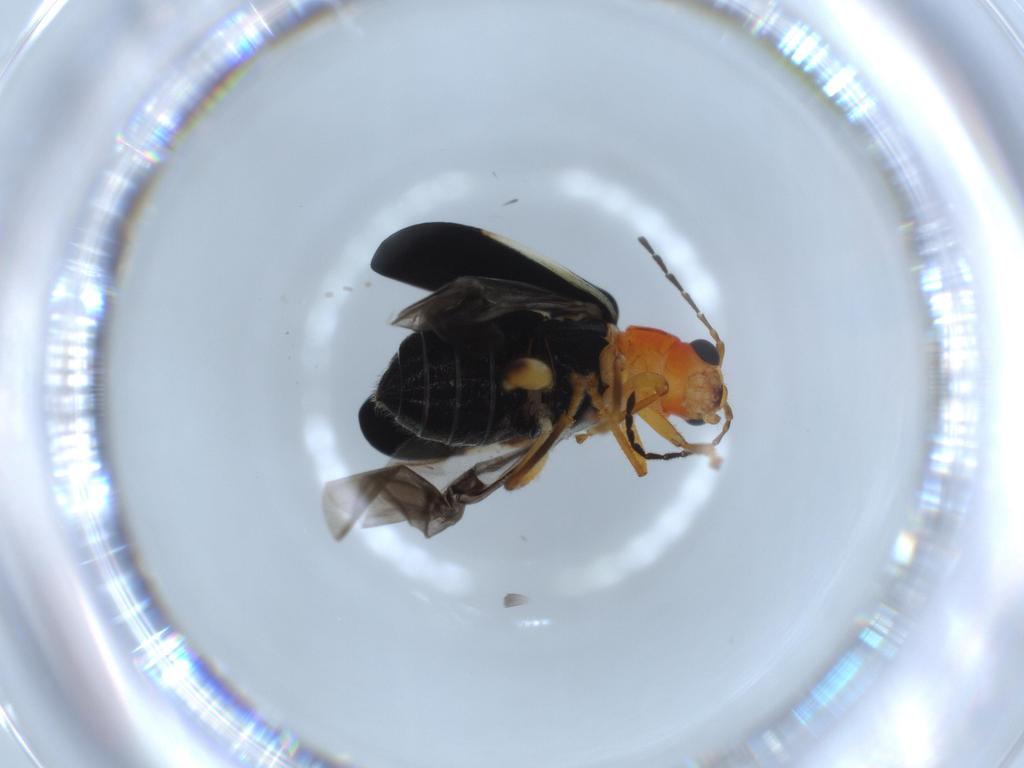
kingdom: Animalia
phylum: Arthropoda
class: Insecta
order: Coleoptera
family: Chrysomelidae
